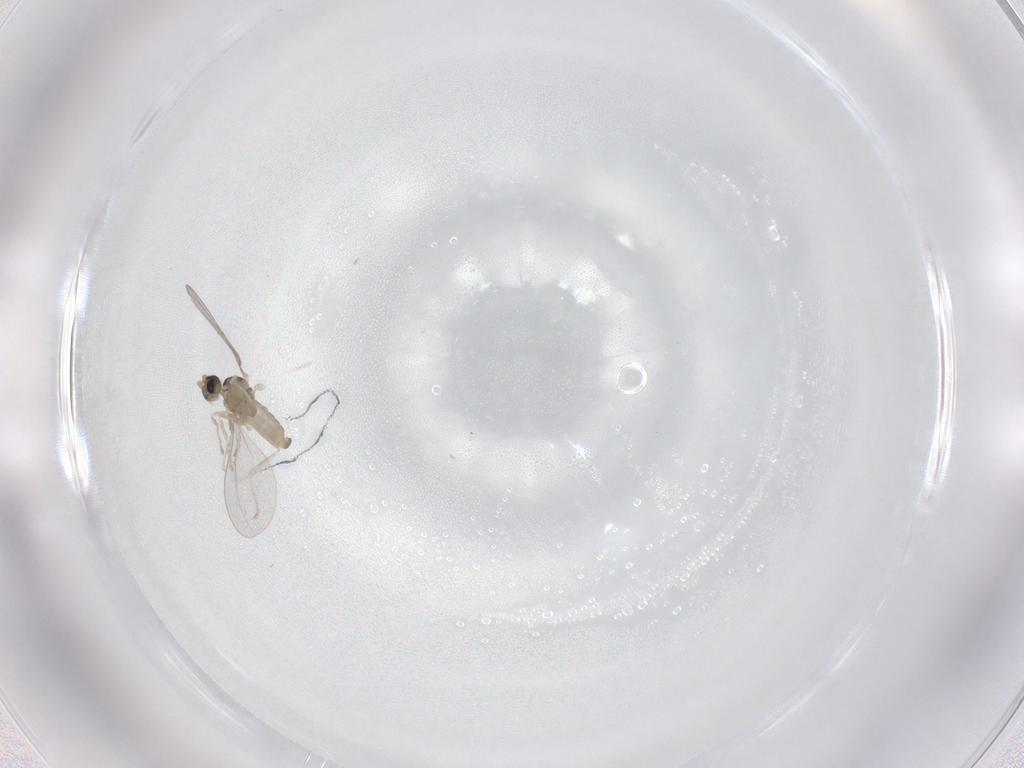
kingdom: Animalia
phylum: Arthropoda
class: Insecta
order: Diptera
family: Cecidomyiidae
